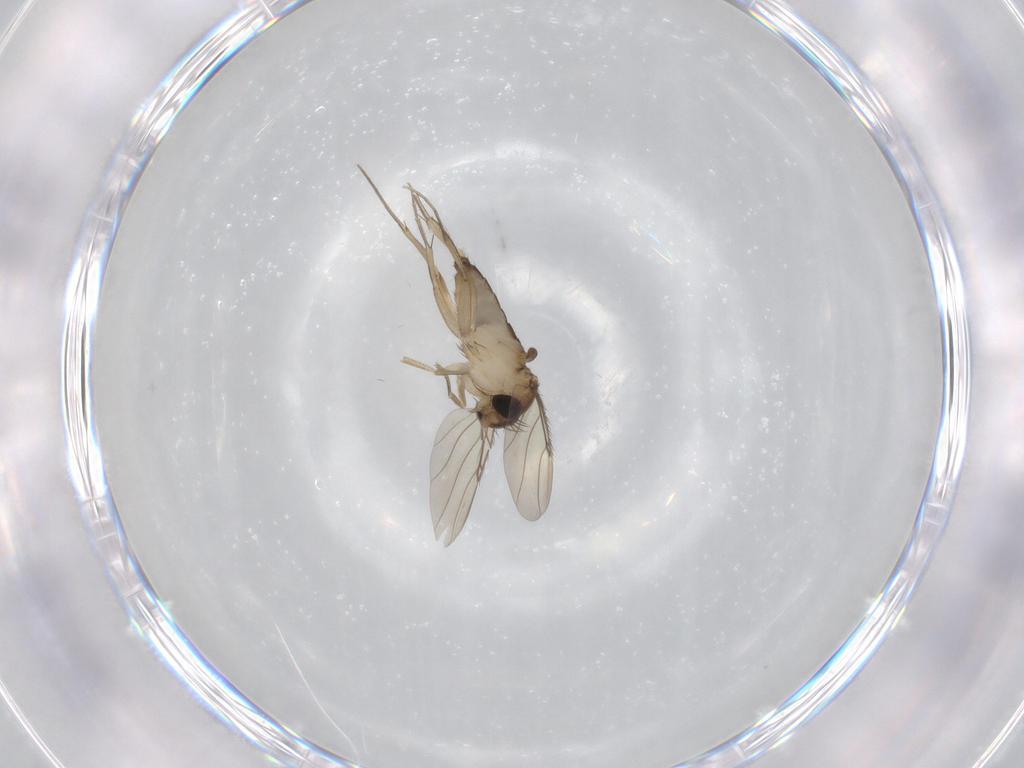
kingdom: Animalia
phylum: Arthropoda
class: Insecta
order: Diptera
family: Phoridae
